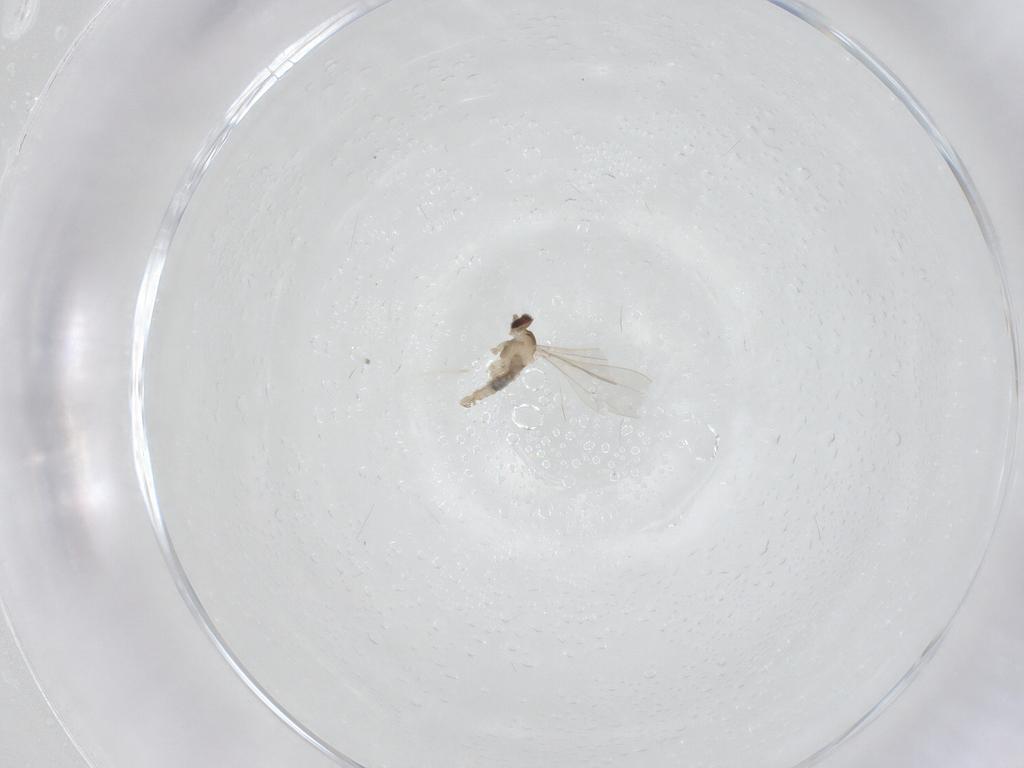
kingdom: Animalia
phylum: Arthropoda
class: Insecta
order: Diptera
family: Cecidomyiidae
